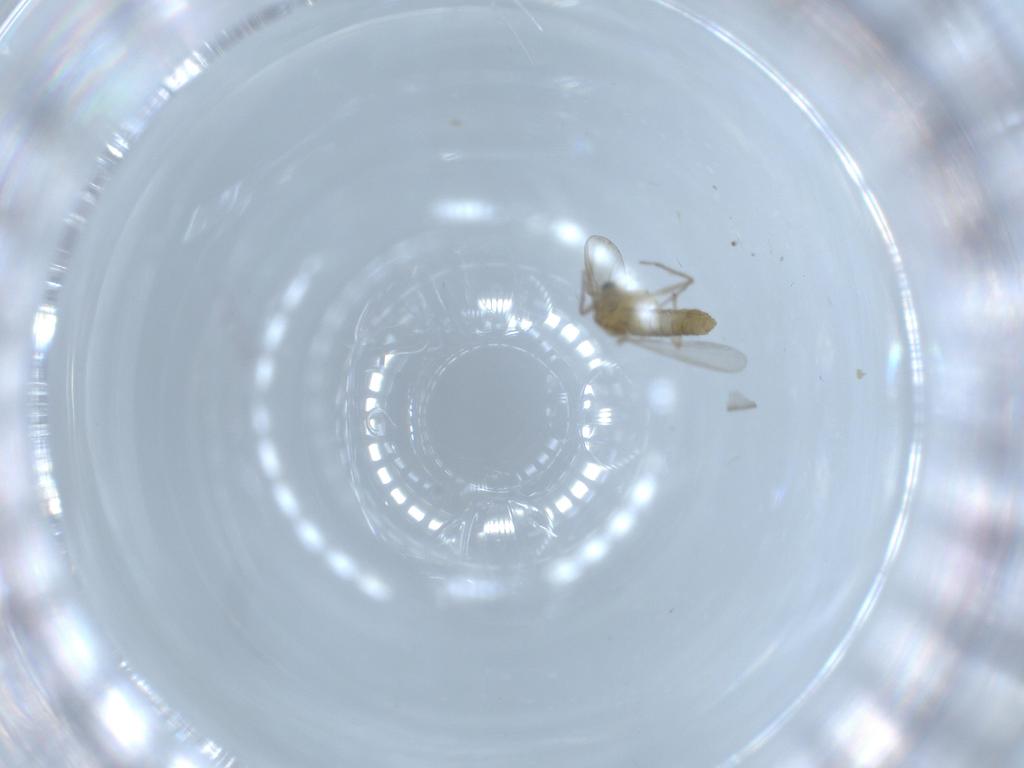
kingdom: Animalia
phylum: Arthropoda
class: Insecta
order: Diptera
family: Chironomidae
